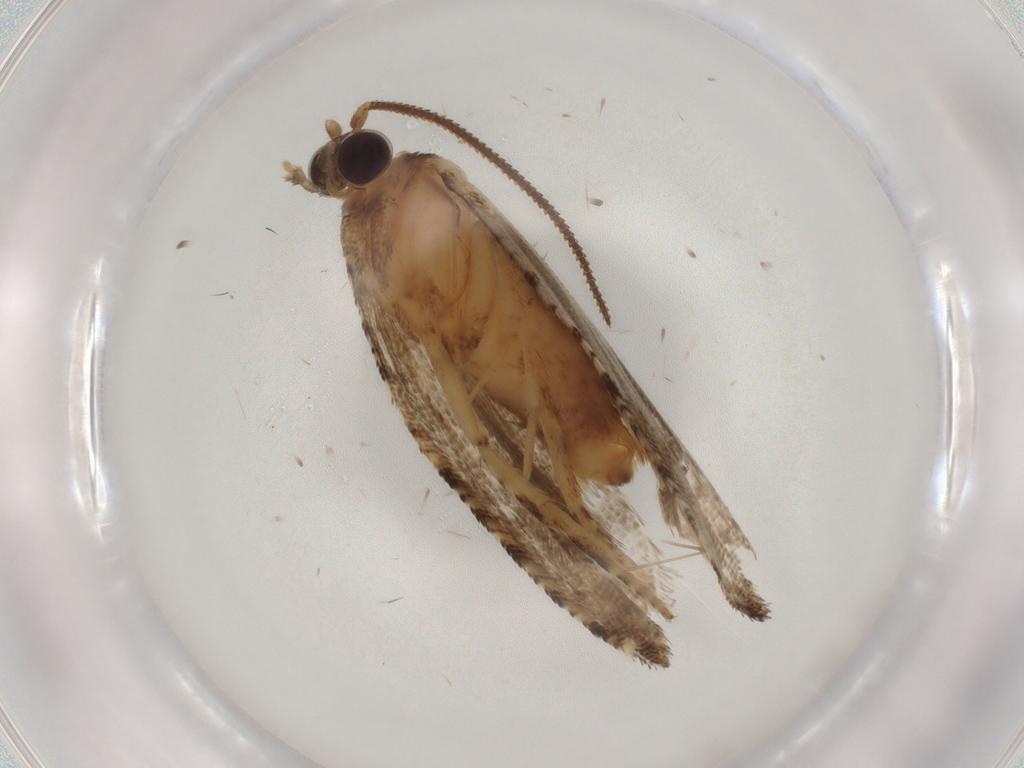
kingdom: Animalia
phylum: Arthropoda
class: Insecta
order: Lepidoptera
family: Tortricidae
